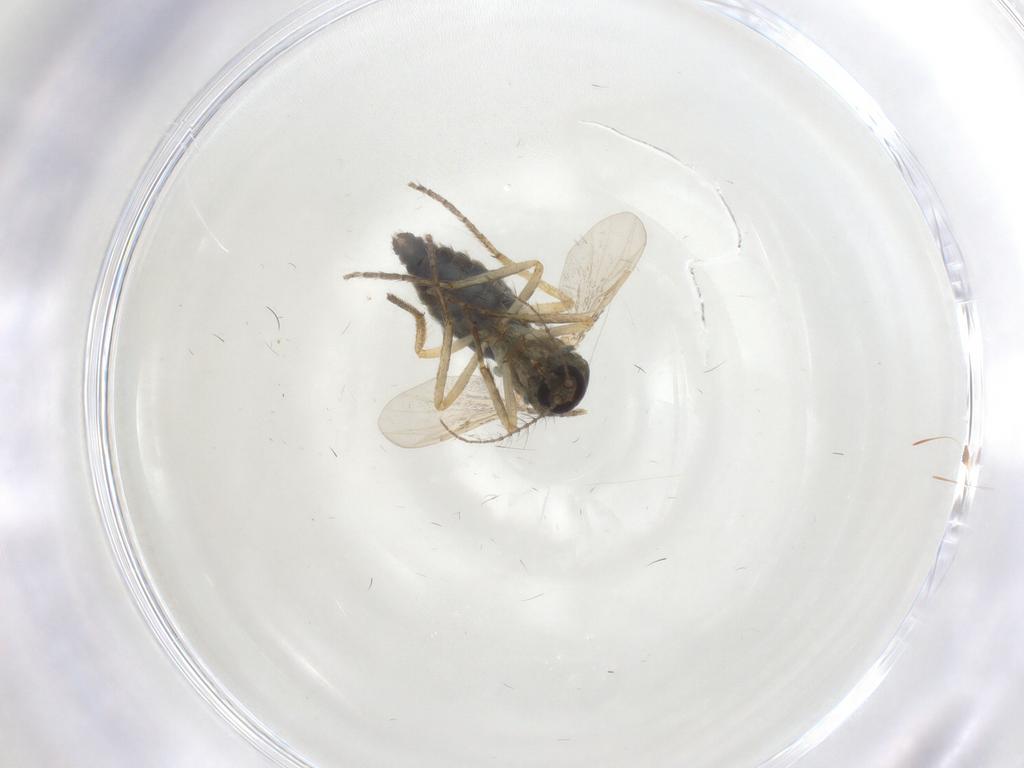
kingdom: Animalia
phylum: Arthropoda
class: Insecta
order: Diptera
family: Ceratopogonidae
